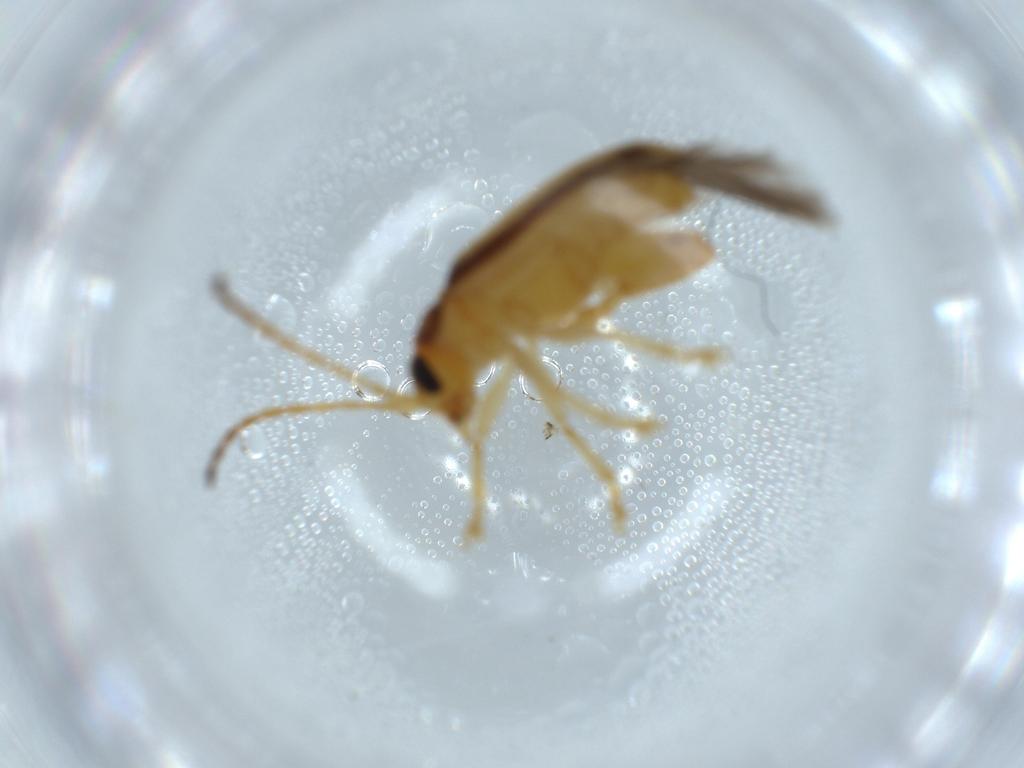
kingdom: Animalia
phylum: Arthropoda
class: Insecta
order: Coleoptera
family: Chrysomelidae
